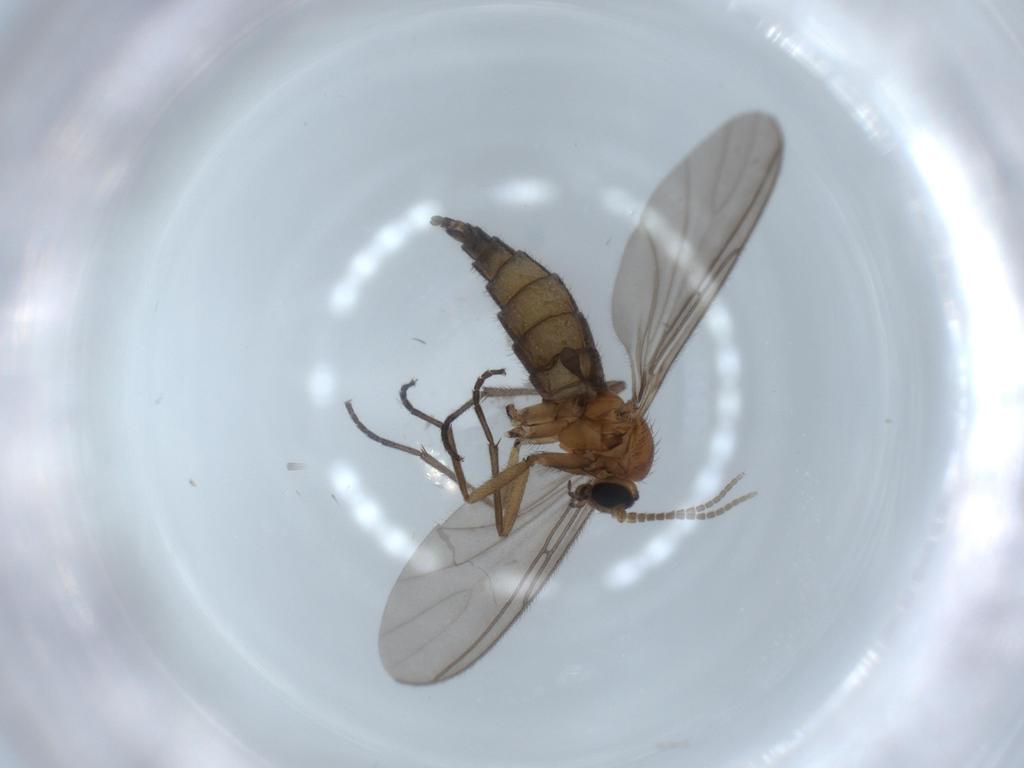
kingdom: Animalia
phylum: Arthropoda
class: Insecta
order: Diptera
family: Sciaridae
